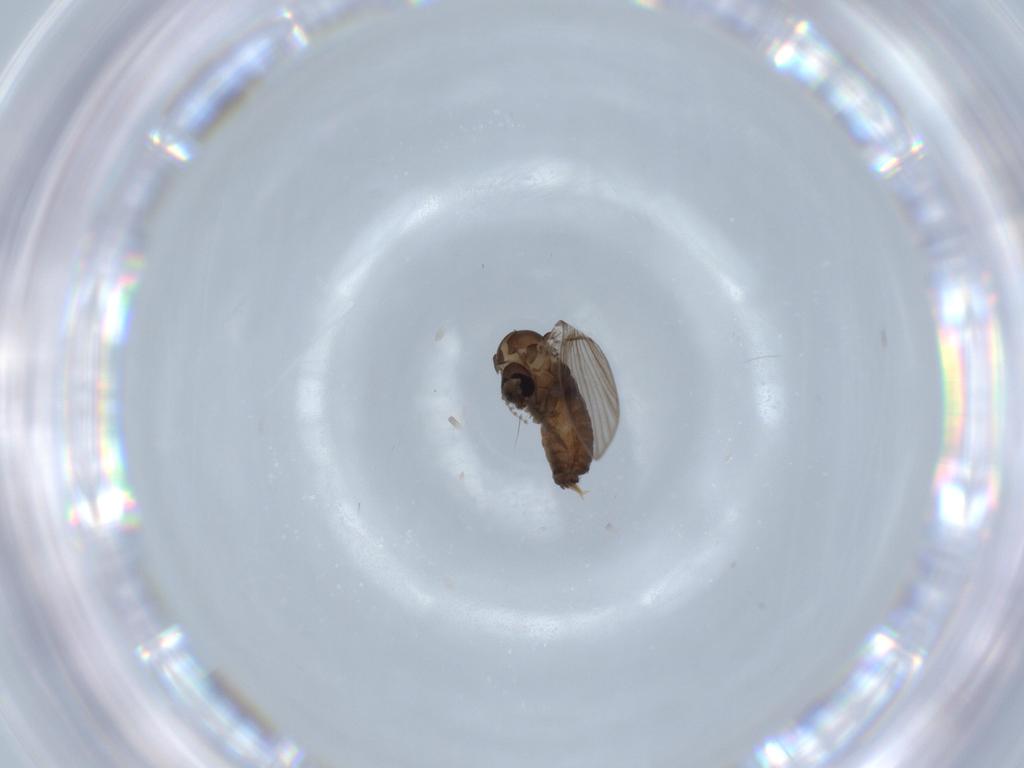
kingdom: Animalia
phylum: Arthropoda
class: Insecta
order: Diptera
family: Psychodidae
